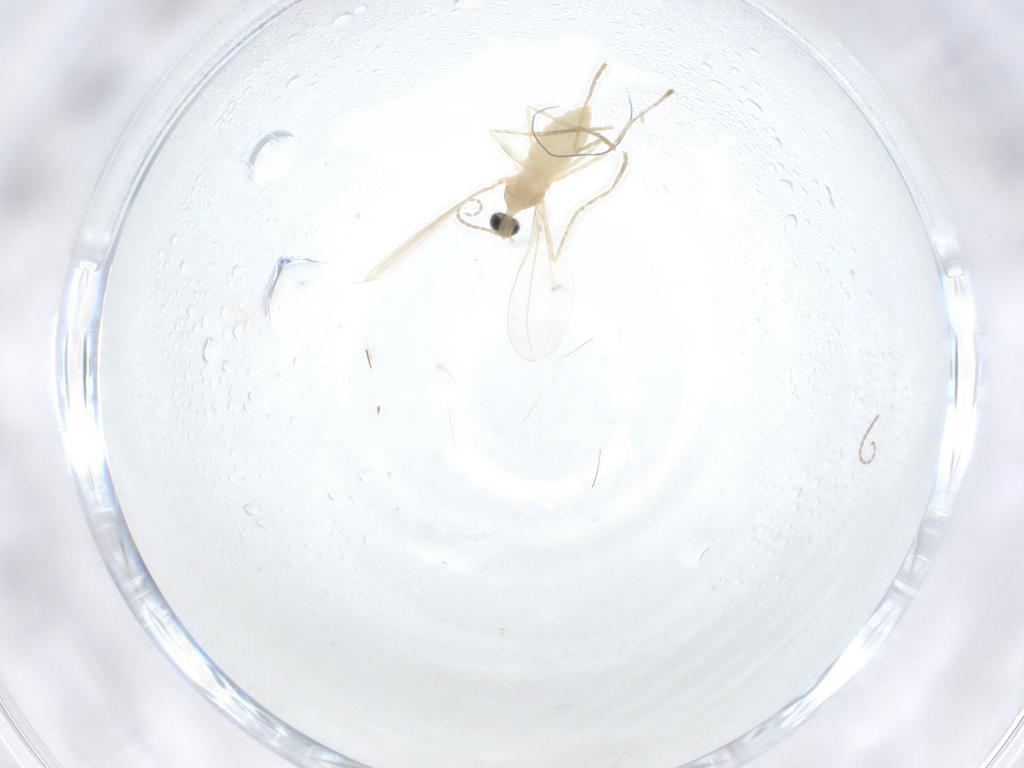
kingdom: Animalia
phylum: Arthropoda
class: Insecta
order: Diptera
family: Cecidomyiidae
